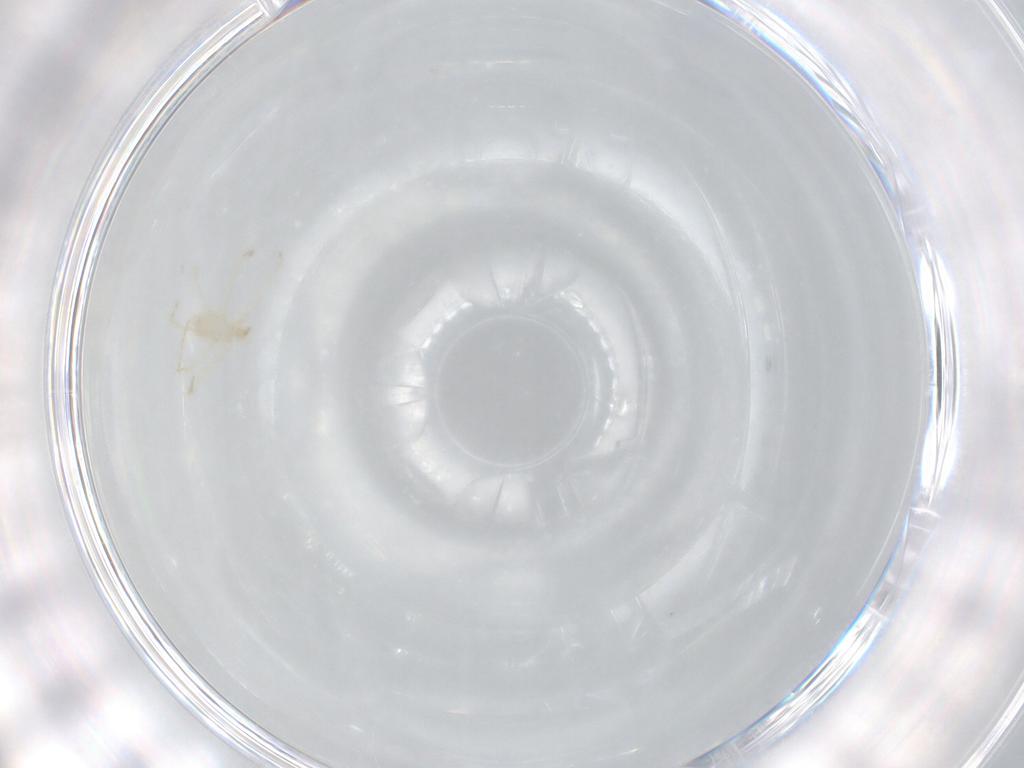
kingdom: Animalia
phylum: Arthropoda
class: Arachnida
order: Trombidiformes
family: Erythraeidae
